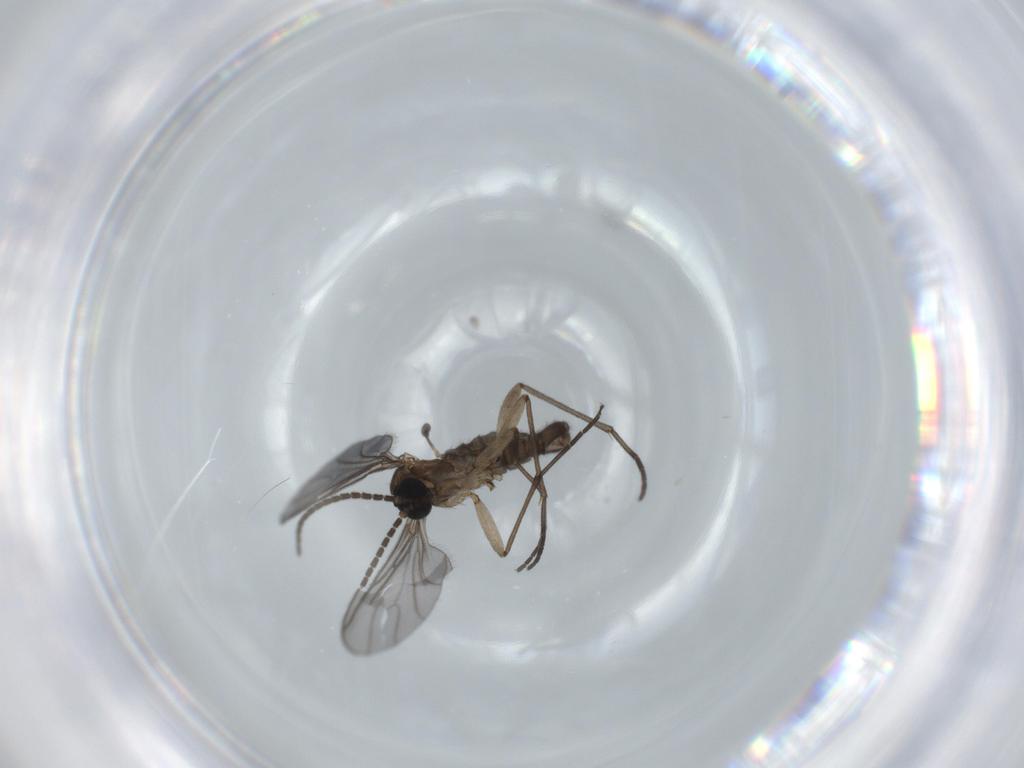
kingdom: Animalia
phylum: Arthropoda
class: Insecta
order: Diptera
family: Sciaridae
